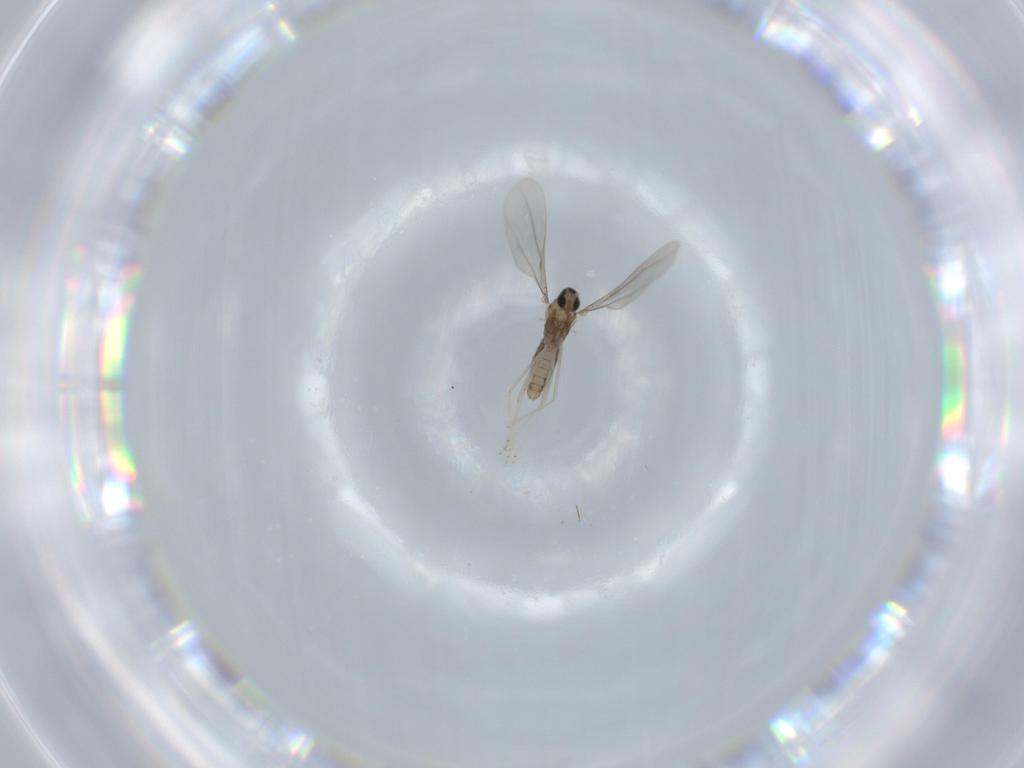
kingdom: Animalia
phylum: Arthropoda
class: Insecta
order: Diptera
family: Cecidomyiidae
